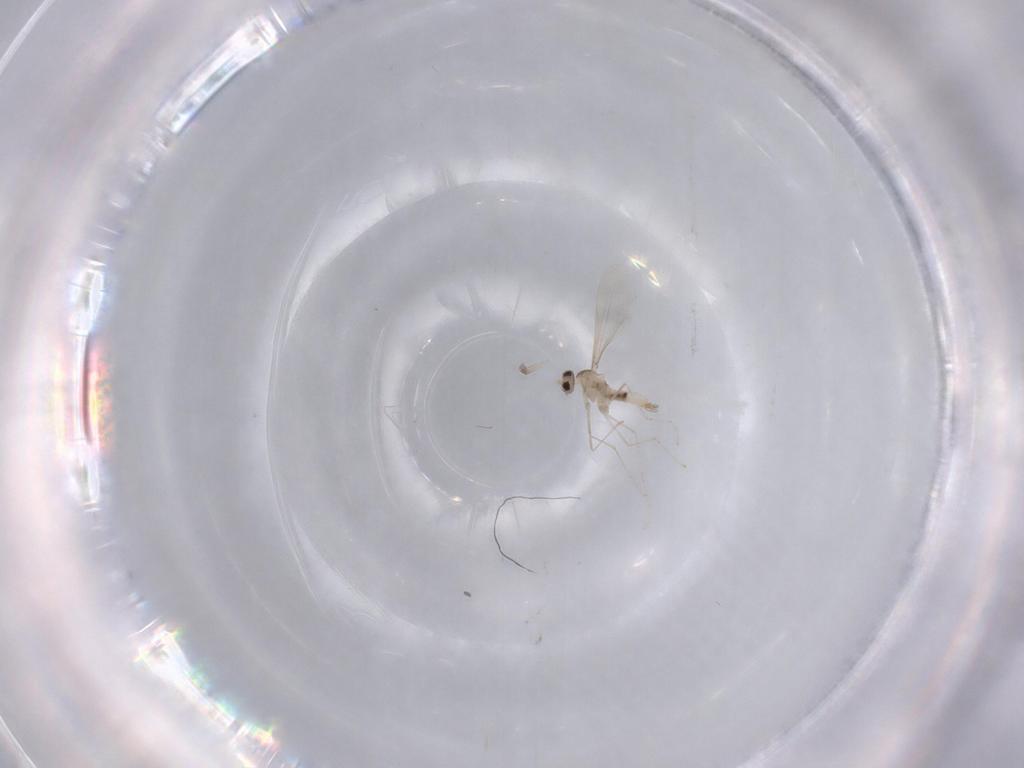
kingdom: Animalia
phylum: Arthropoda
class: Insecta
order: Diptera
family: Cecidomyiidae
